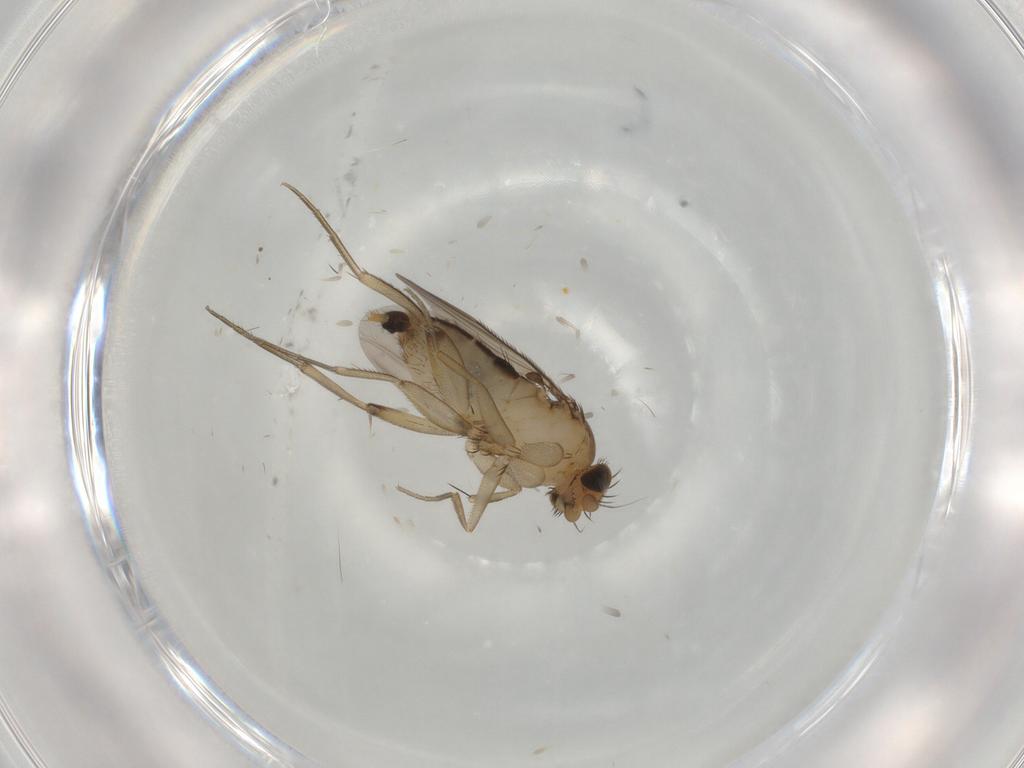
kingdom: Animalia
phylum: Arthropoda
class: Insecta
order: Diptera
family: Phoridae
